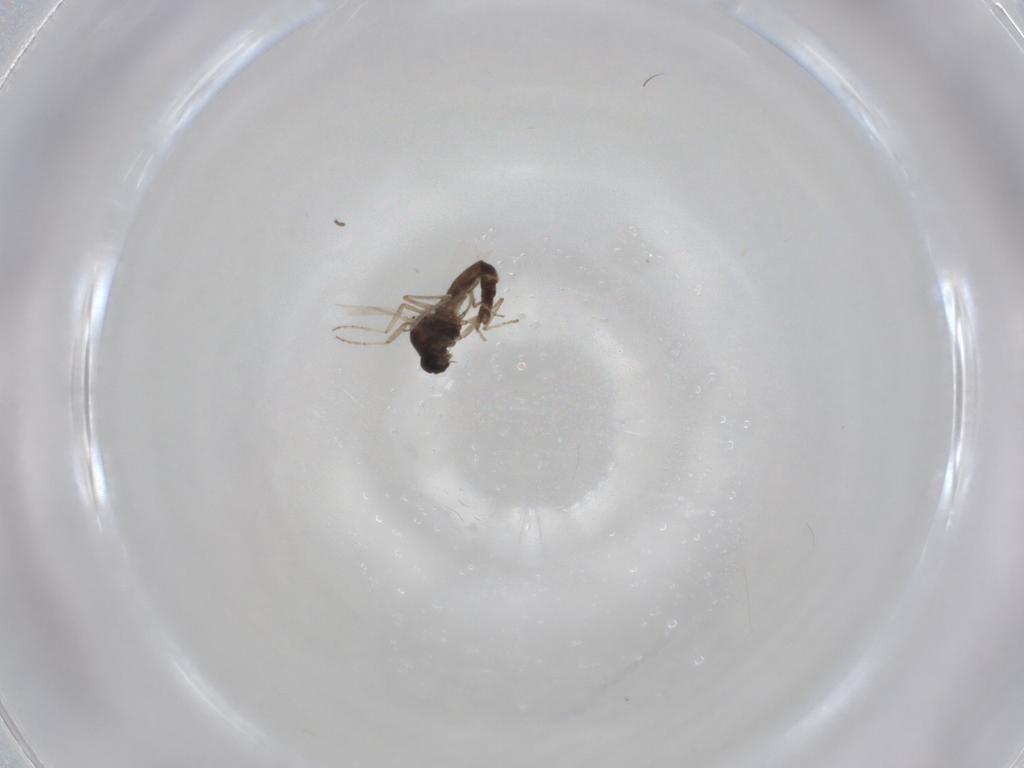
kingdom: Animalia
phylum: Arthropoda
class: Insecta
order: Diptera
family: Ceratopogonidae
